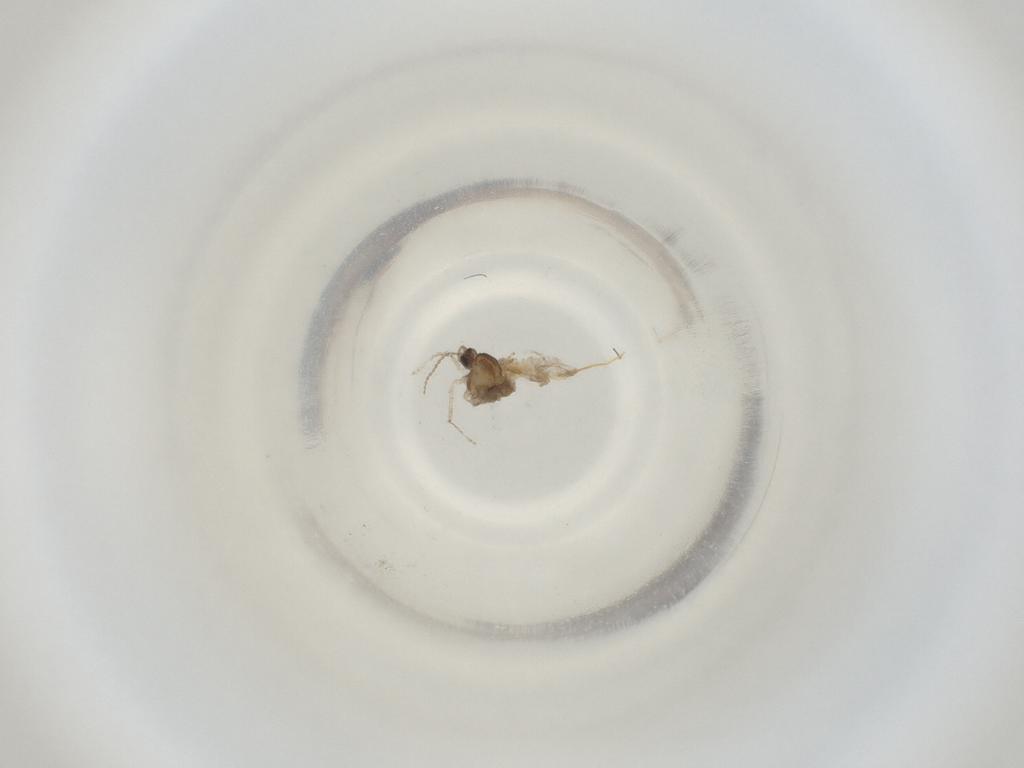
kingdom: Animalia
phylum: Arthropoda
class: Insecta
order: Diptera
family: Cecidomyiidae
